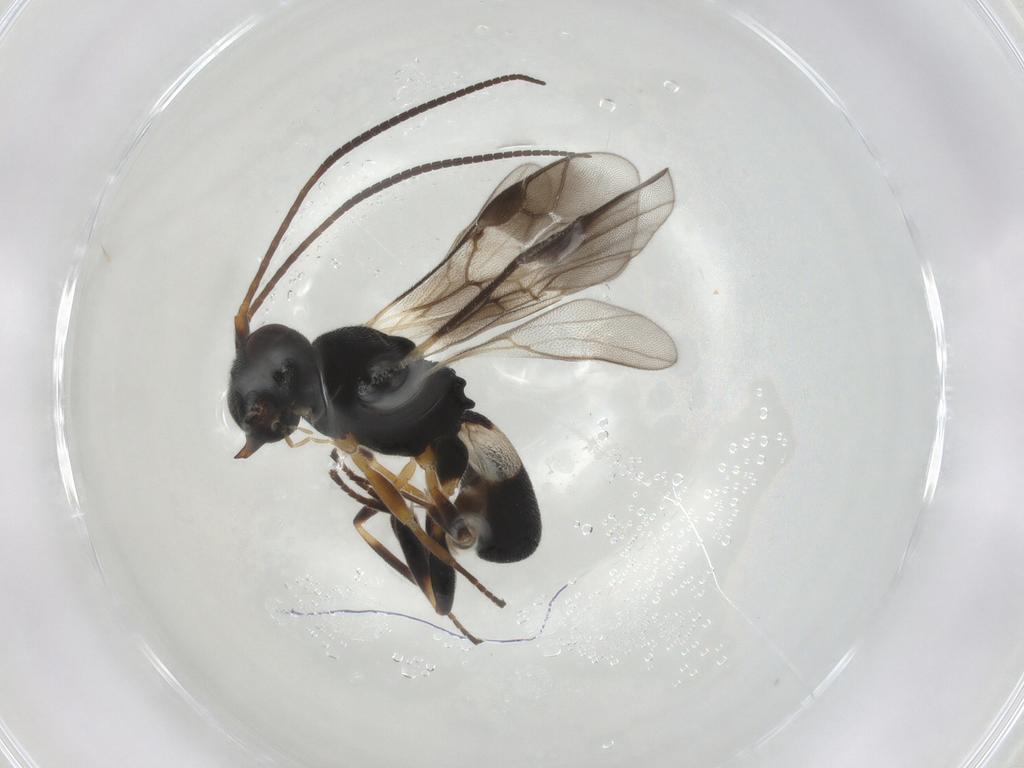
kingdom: Animalia
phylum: Arthropoda
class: Insecta
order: Hymenoptera
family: Braconidae
